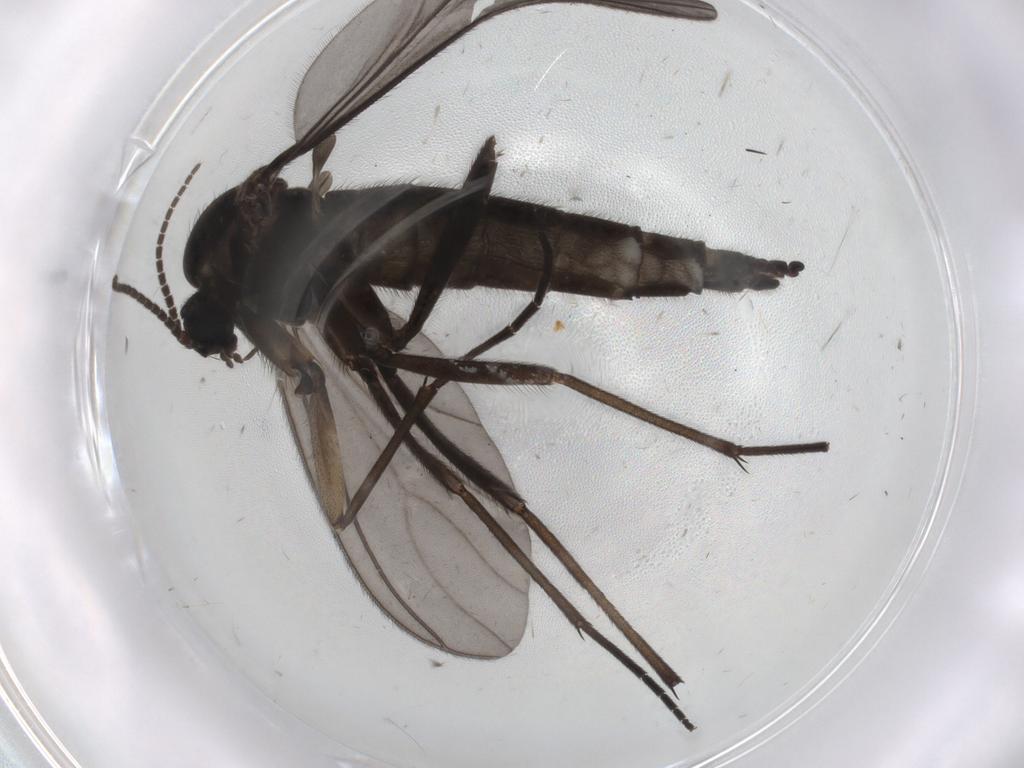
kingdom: Animalia
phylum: Arthropoda
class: Insecta
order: Diptera
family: Sciaridae
